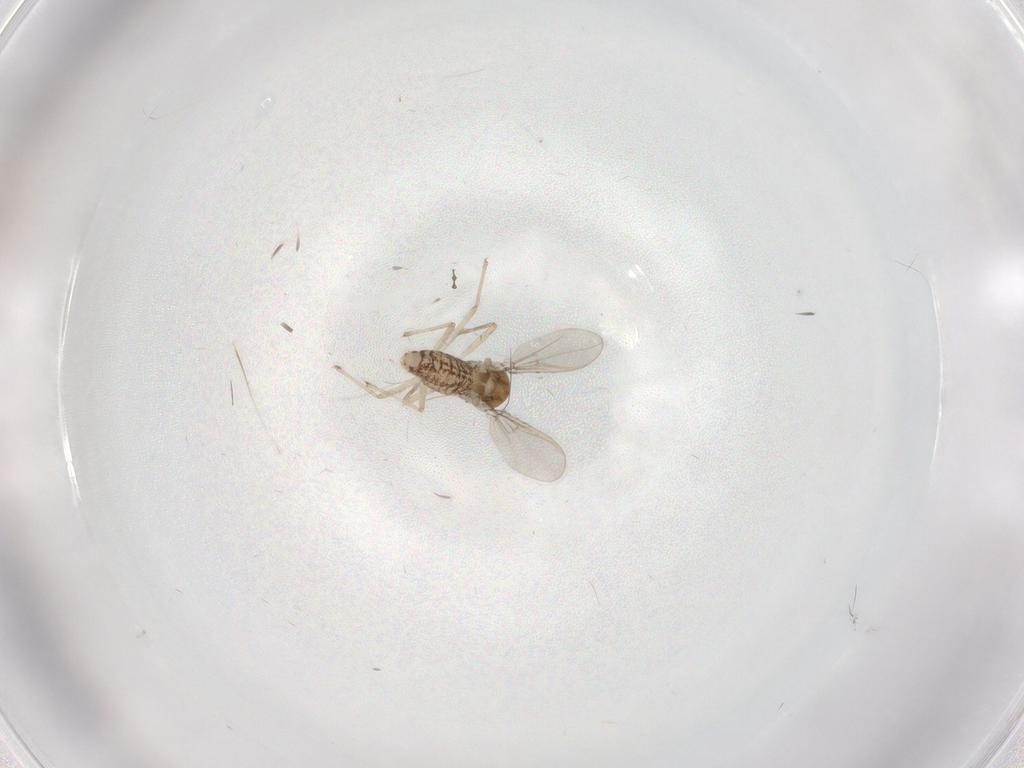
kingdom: Animalia
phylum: Arthropoda
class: Insecta
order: Diptera
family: Chironomidae
